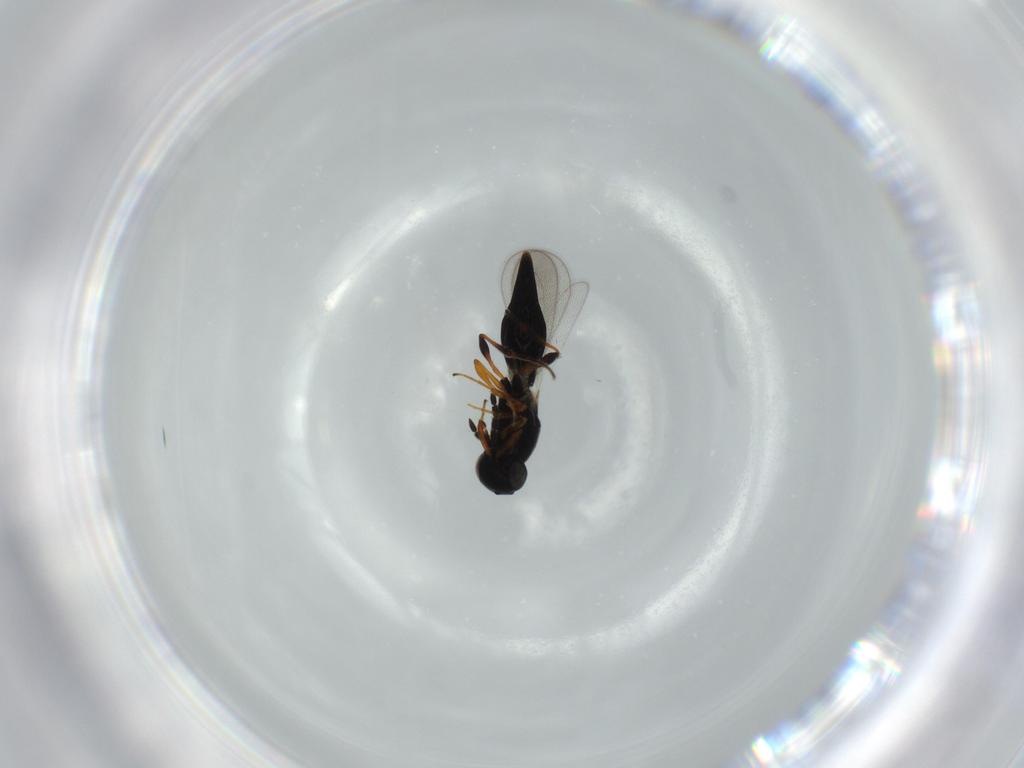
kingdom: Animalia
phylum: Arthropoda
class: Insecta
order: Hymenoptera
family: Platygastridae
